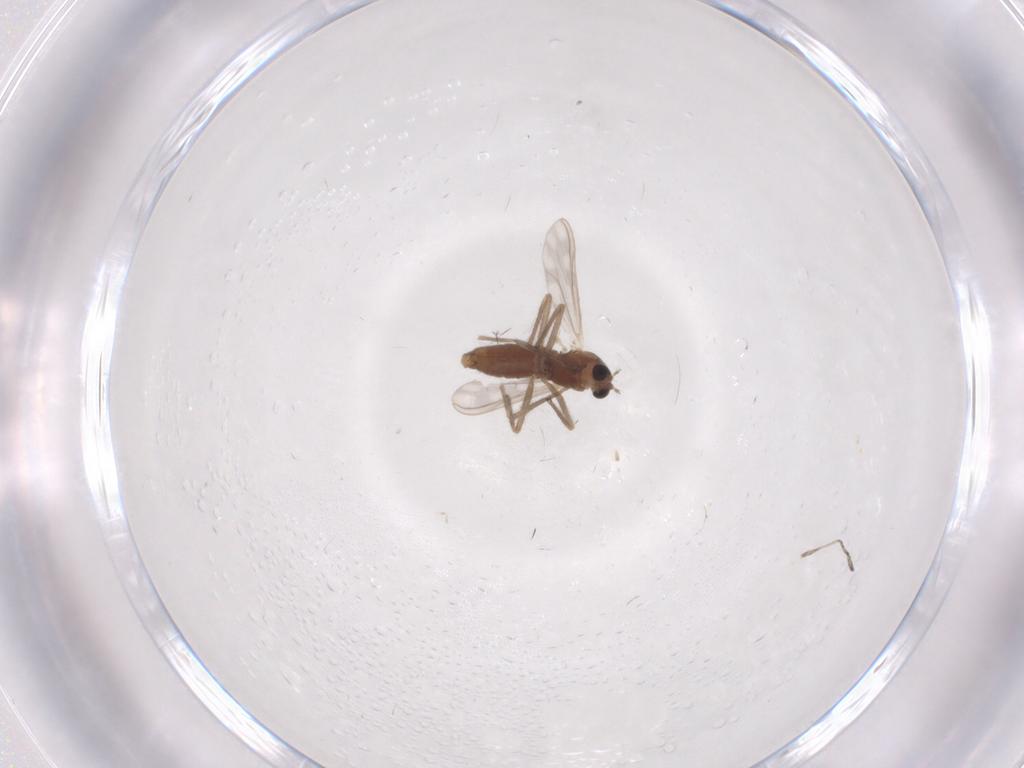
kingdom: Animalia
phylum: Arthropoda
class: Insecta
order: Diptera
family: Chironomidae
